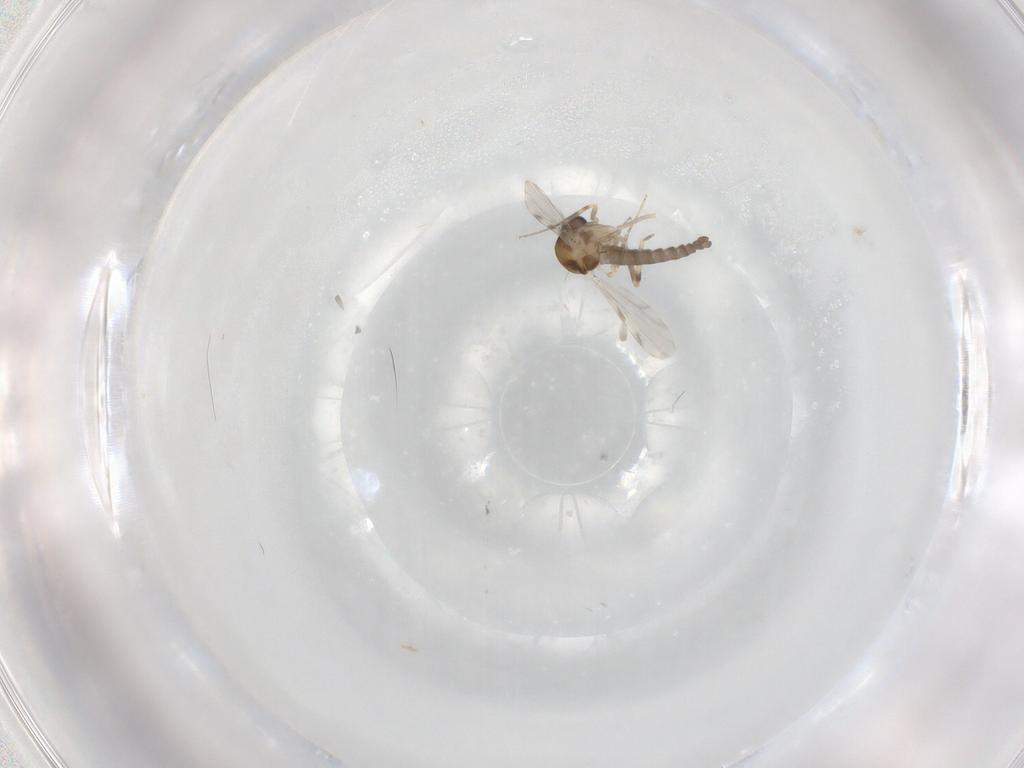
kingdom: Animalia
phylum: Arthropoda
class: Insecta
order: Diptera
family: Ceratopogonidae
